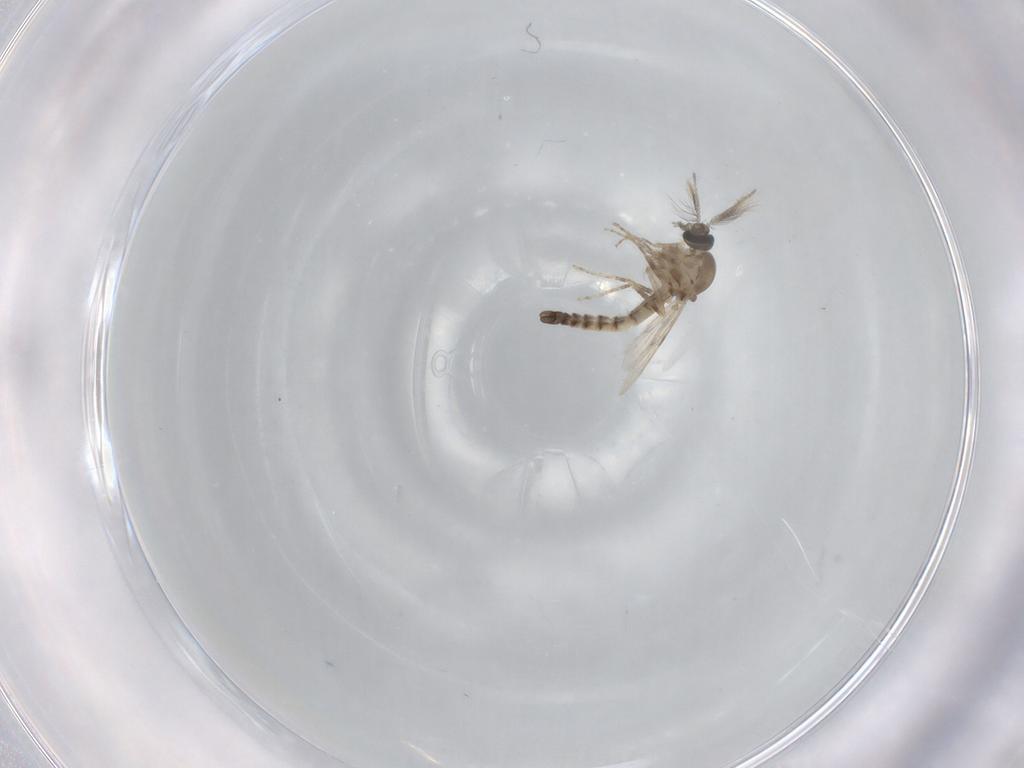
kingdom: Animalia
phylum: Arthropoda
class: Insecta
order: Diptera
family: Ceratopogonidae
